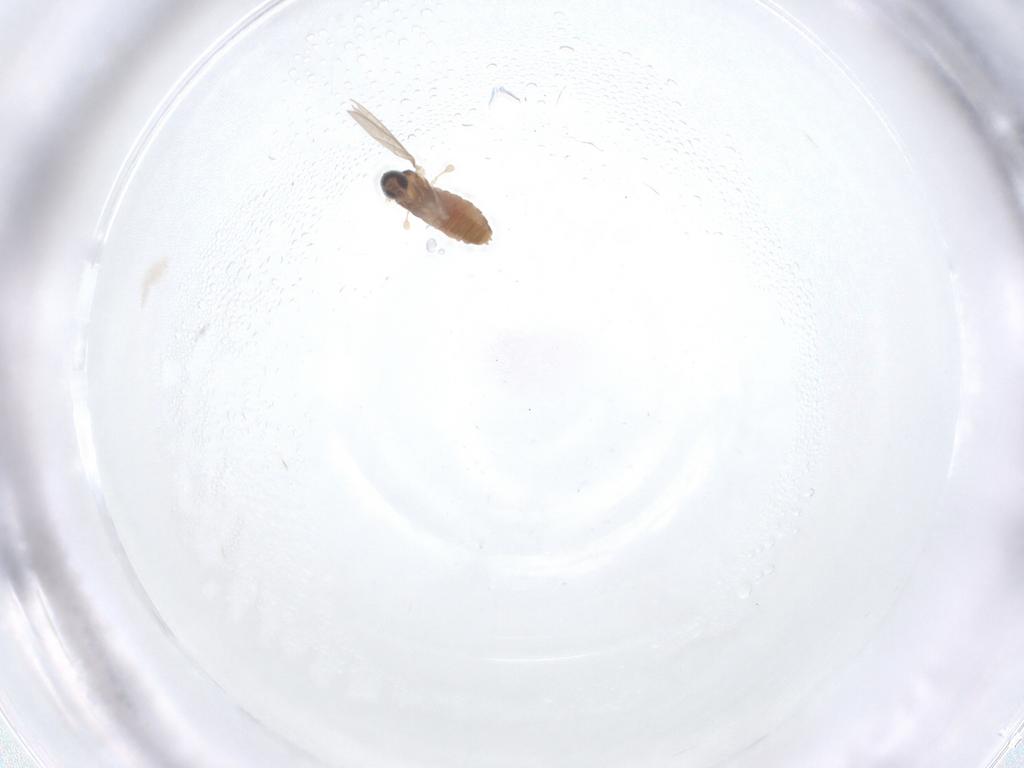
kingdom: Animalia
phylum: Arthropoda
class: Insecta
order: Diptera
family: Cecidomyiidae
